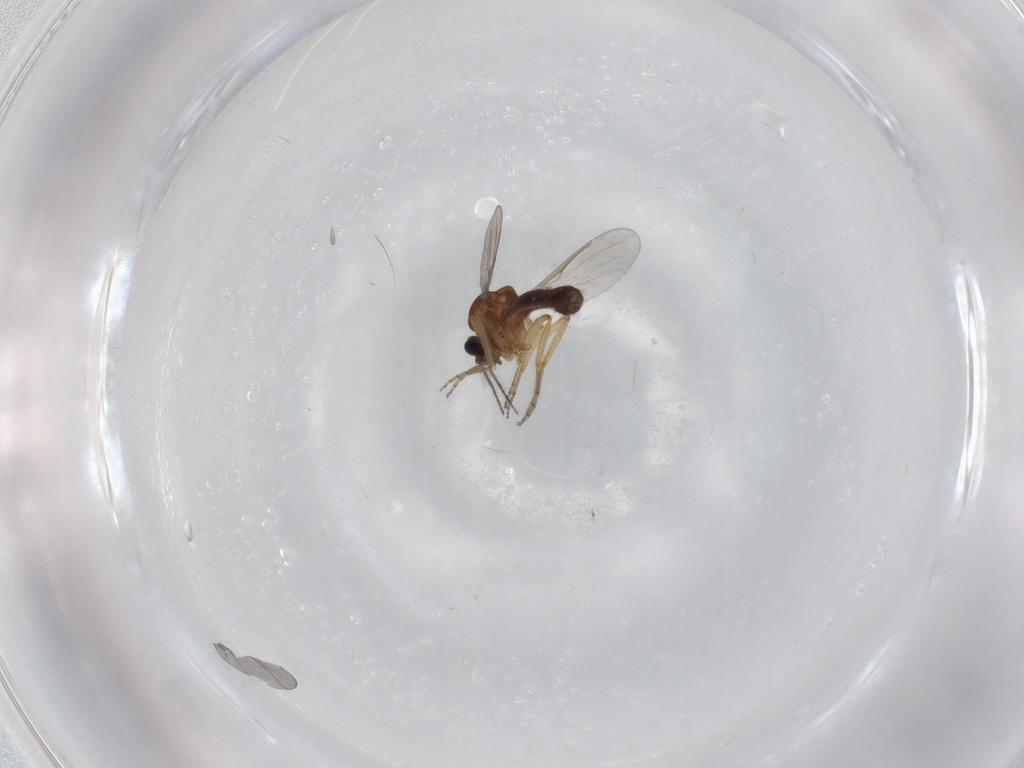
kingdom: Animalia
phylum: Arthropoda
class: Insecta
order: Diptera
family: Ceratopogonidae
